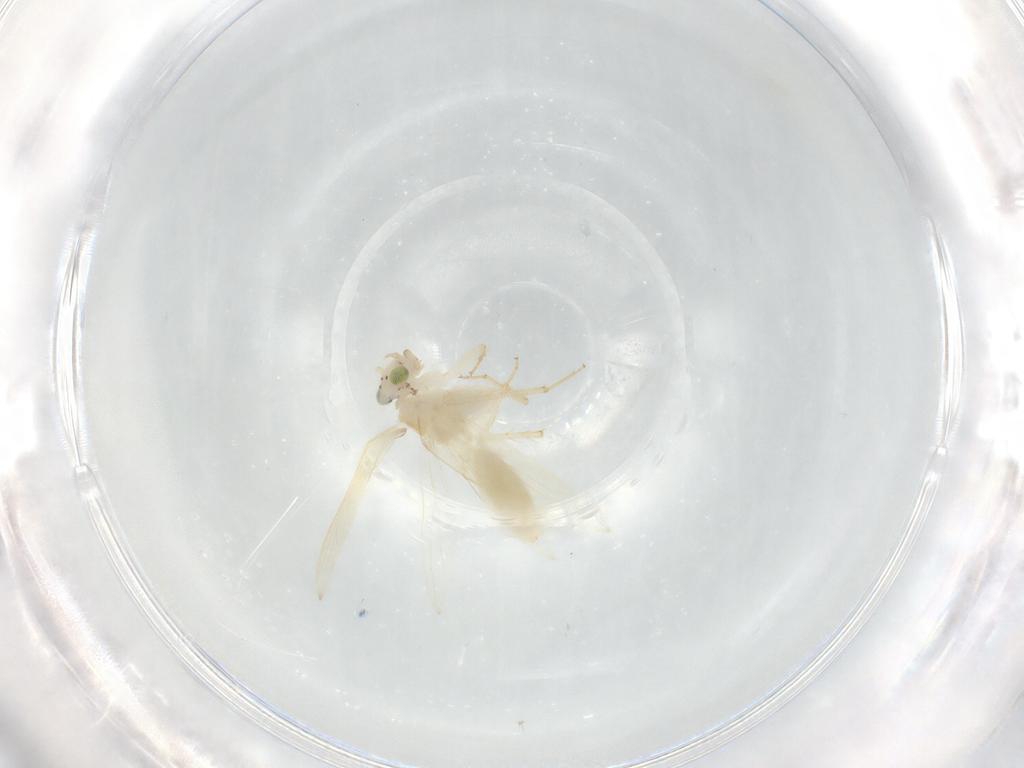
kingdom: Animalia
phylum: Arthropoda
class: Insecta
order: Psocodea
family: Lepidopsocidae
